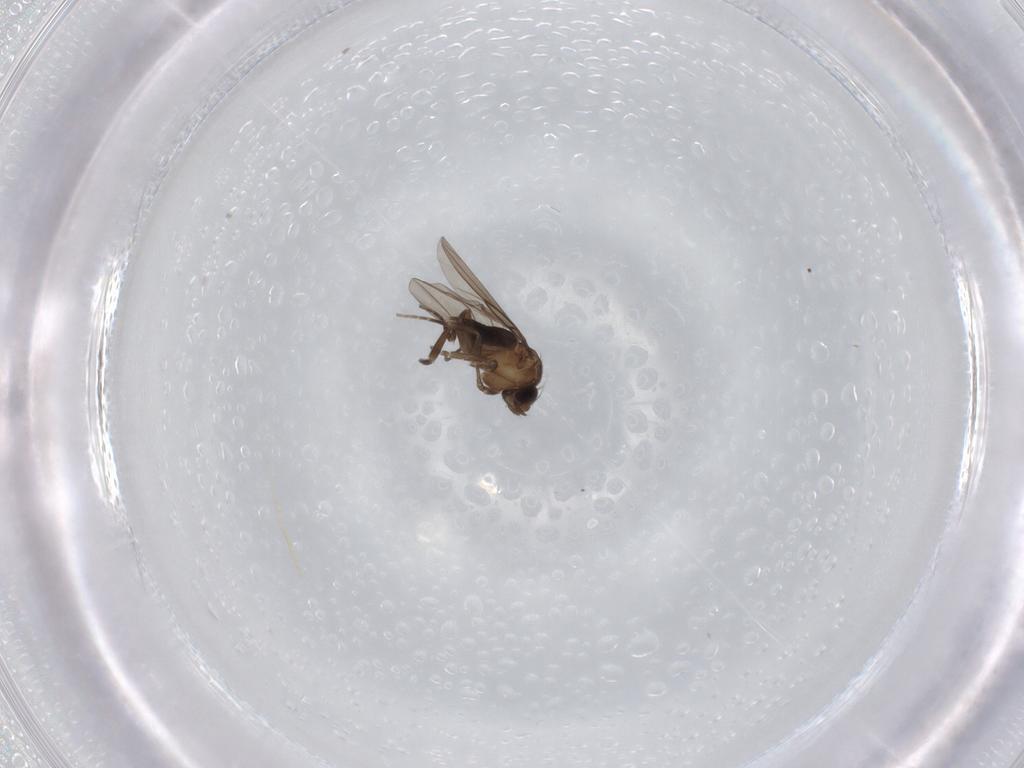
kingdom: Animalia
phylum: Arthropoda
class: Insecta
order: Diptera
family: Phoridae
